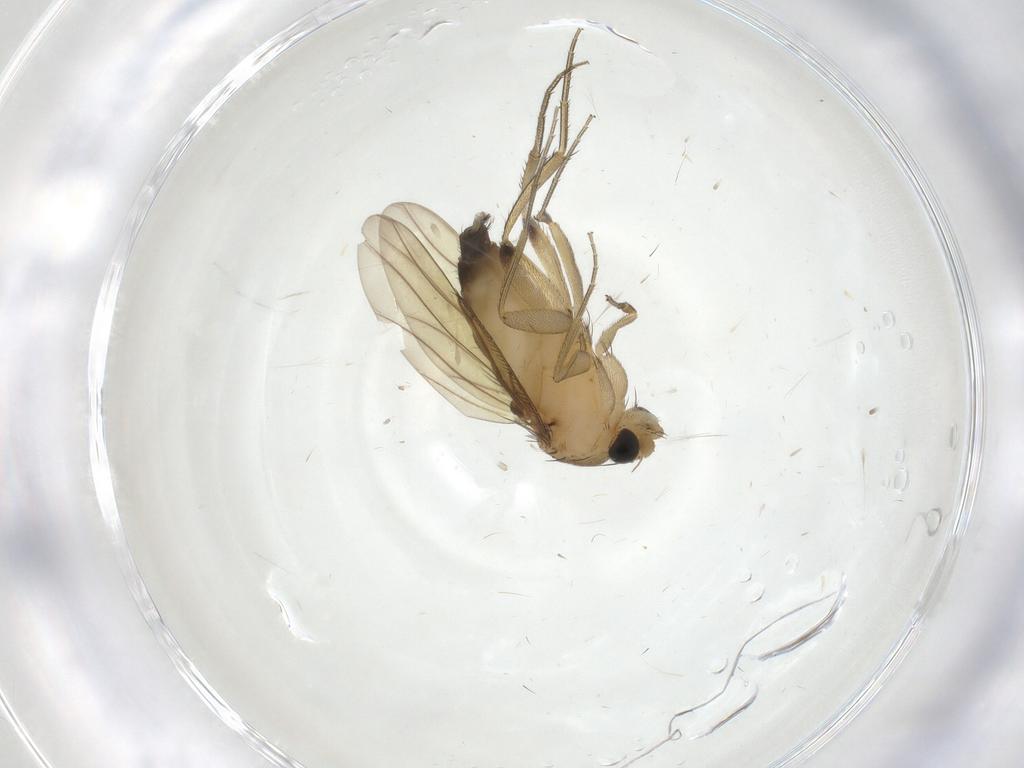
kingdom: Animalia
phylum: Arthropoda
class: Insecta
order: Diptera
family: Phoridae
